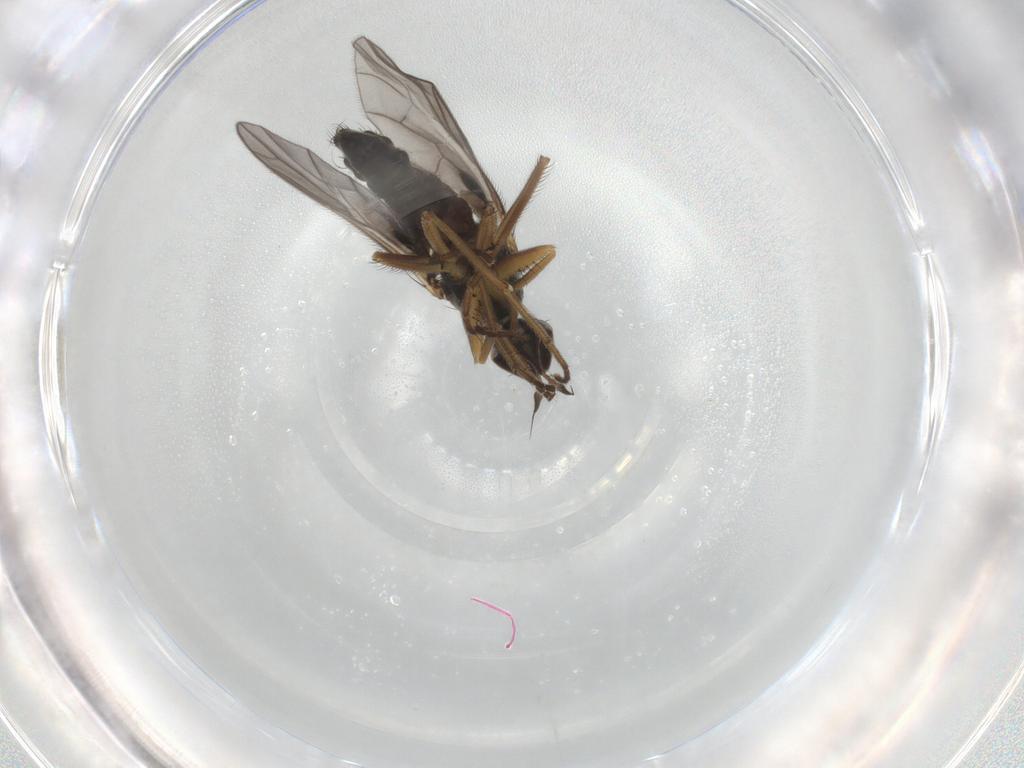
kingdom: Animalia
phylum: Arthropoda
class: Insecta
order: Diptera
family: Empididae
